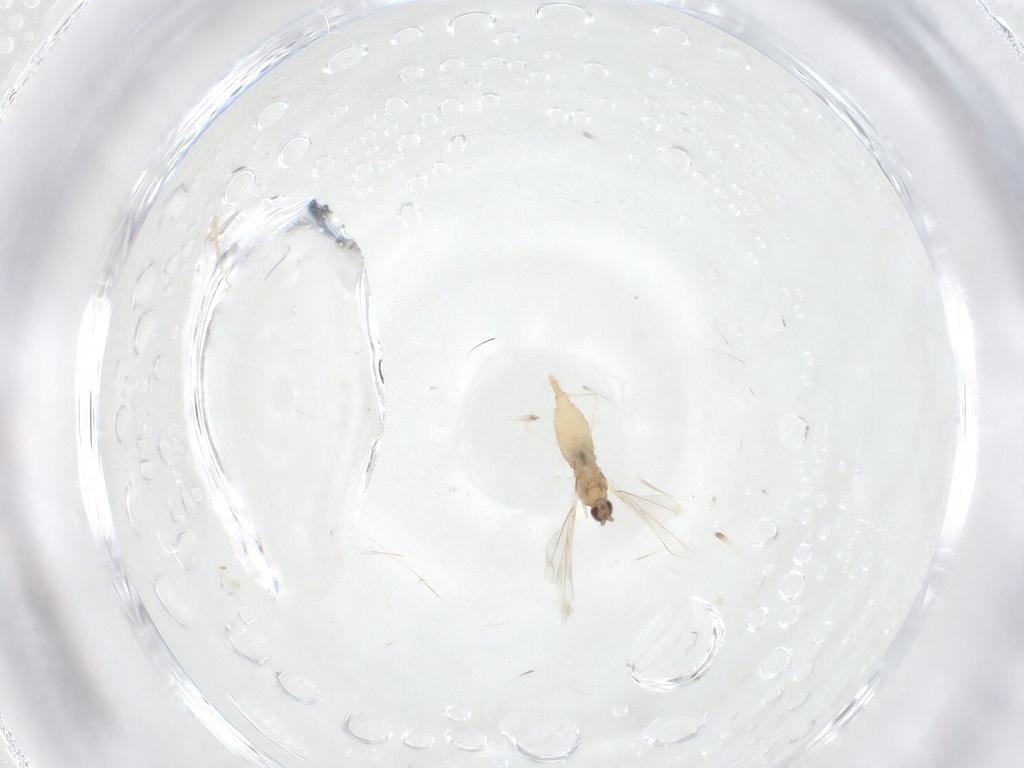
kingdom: Animalia
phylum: Arthropoda
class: Insecta
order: Diptera
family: Cecidomyiidae
